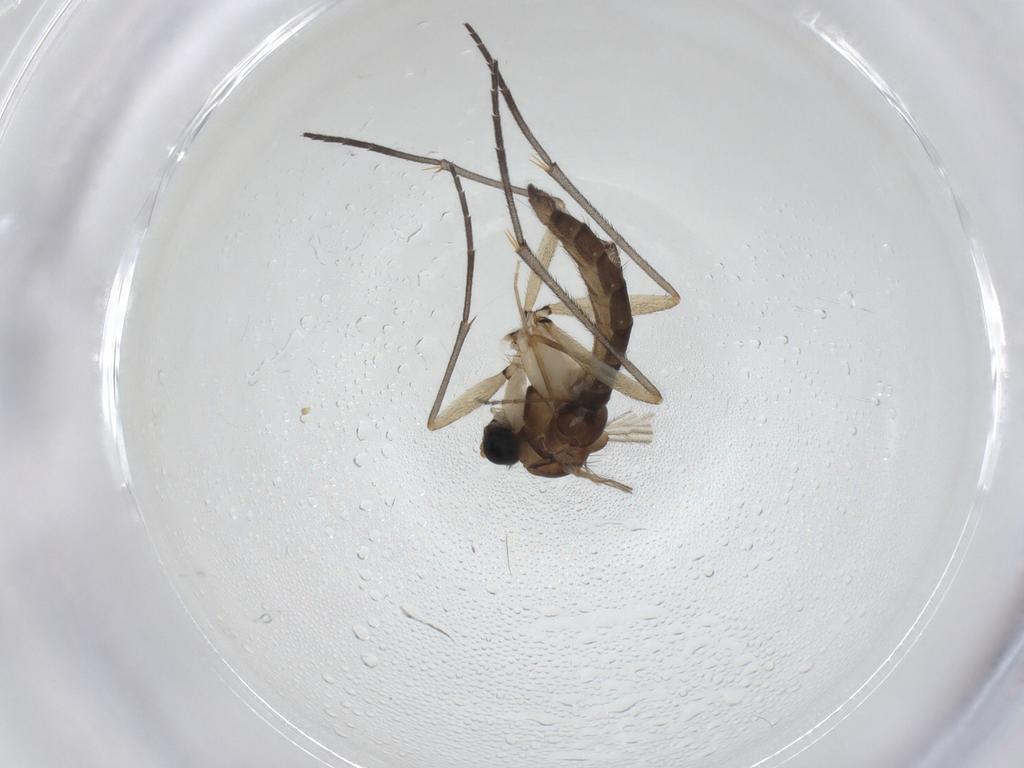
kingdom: Animalia
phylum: Arthropoda
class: Insecta
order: Diptera
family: Sciaridae
